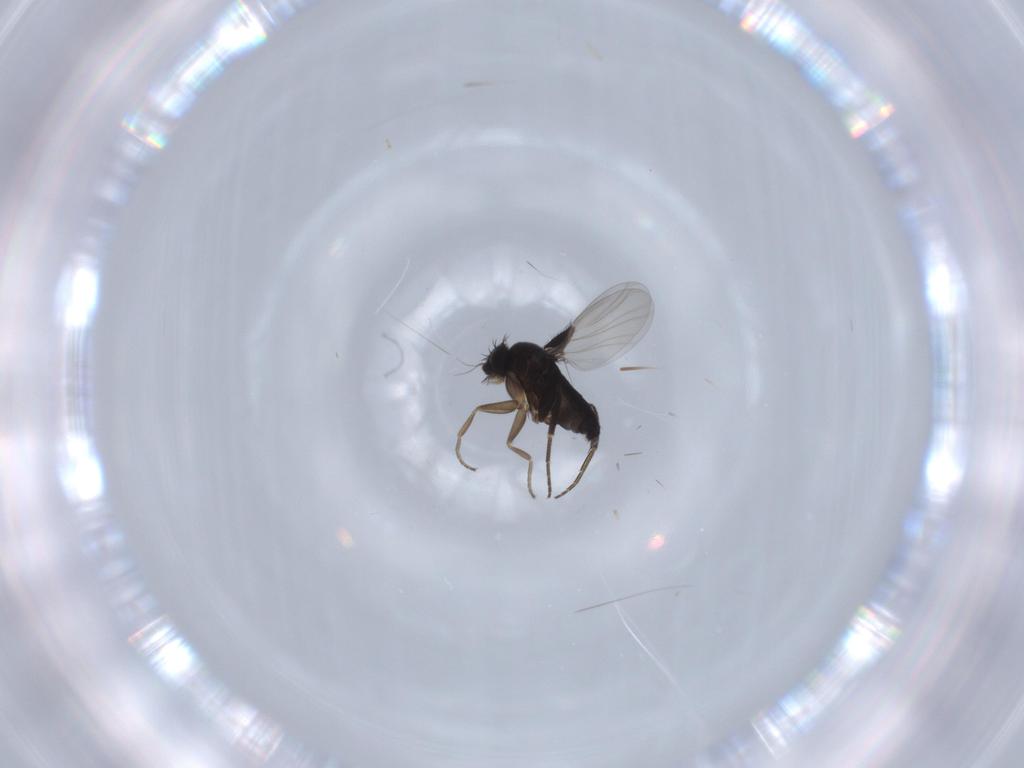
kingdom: Animalia
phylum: Arthropoda
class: Insecta
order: Diptera
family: Phoridae
